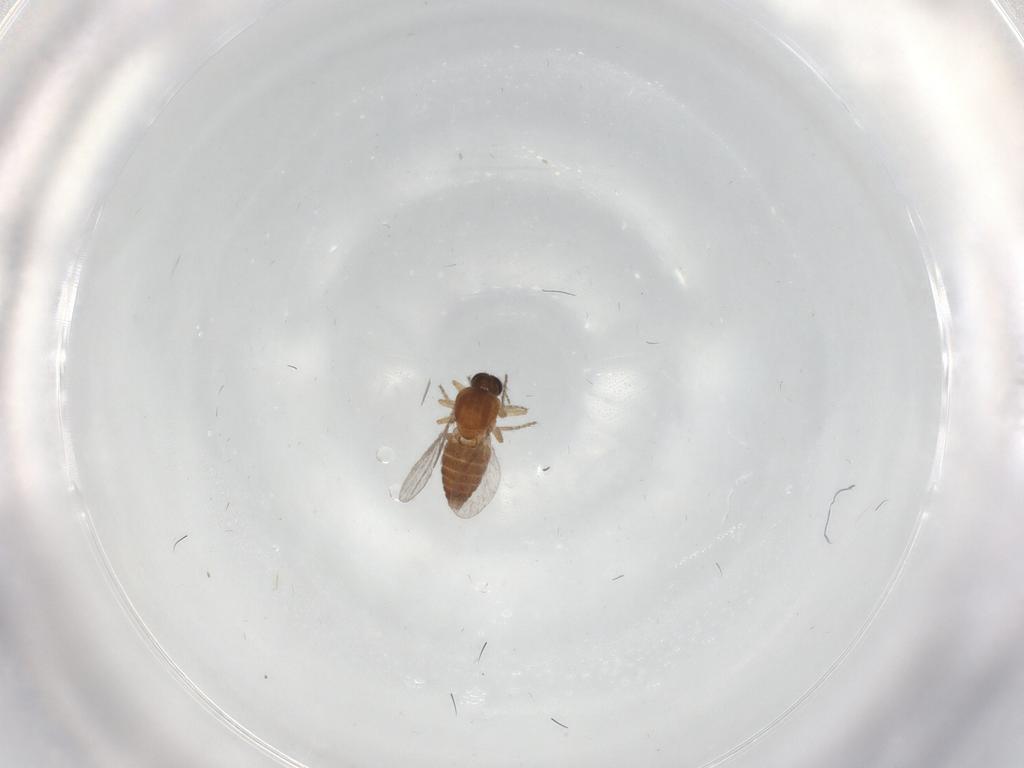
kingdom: Animalia
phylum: Arthropoda
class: Insecta
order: Diptera
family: Ceratopogonidae
